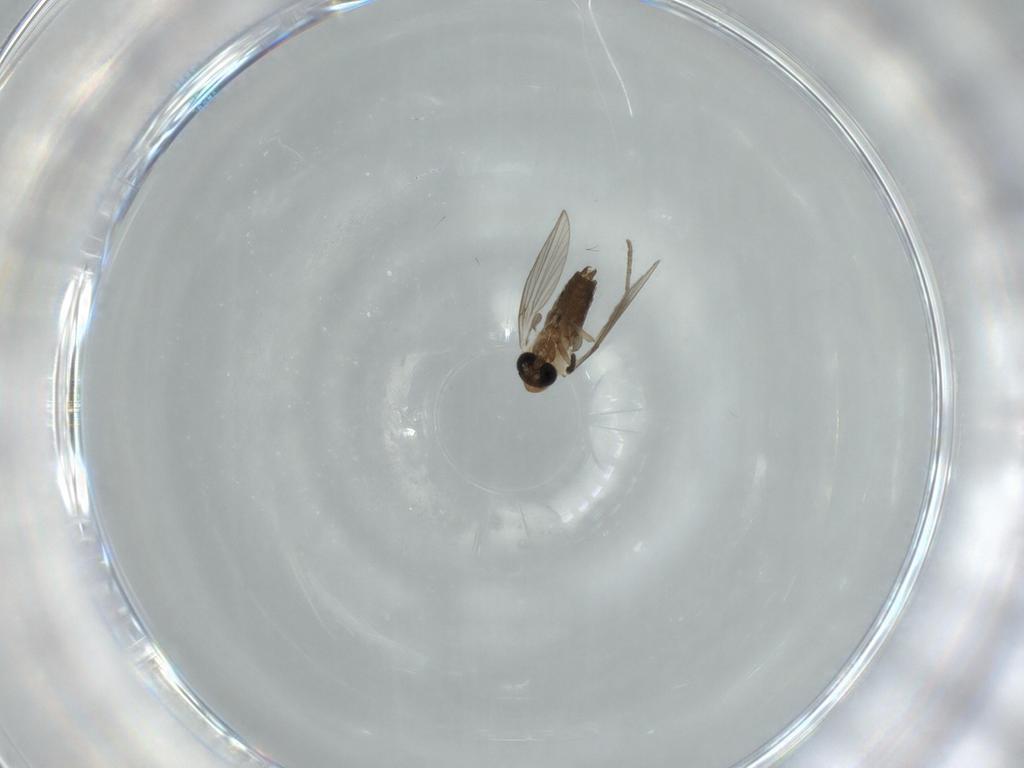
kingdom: Animalia
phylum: Arthropoda
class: Insecta
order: Diptera
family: Psychodidae
